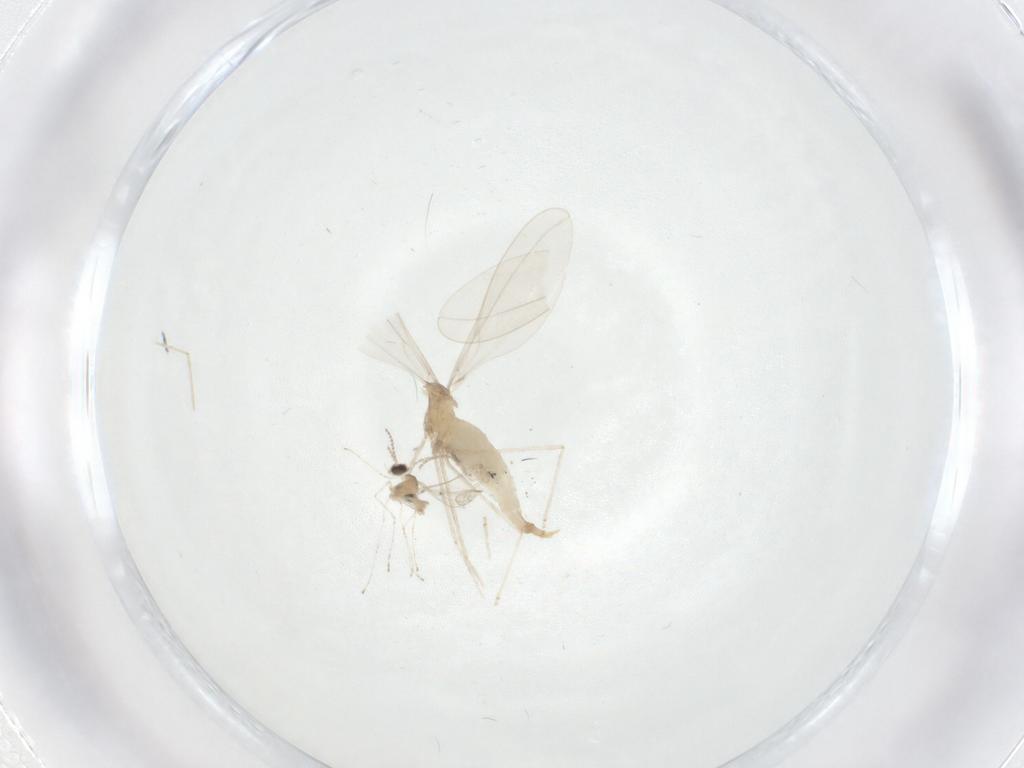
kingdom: Animalia
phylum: Arthropoda
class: Insecta
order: Diptera
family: Cecidomyiidae
